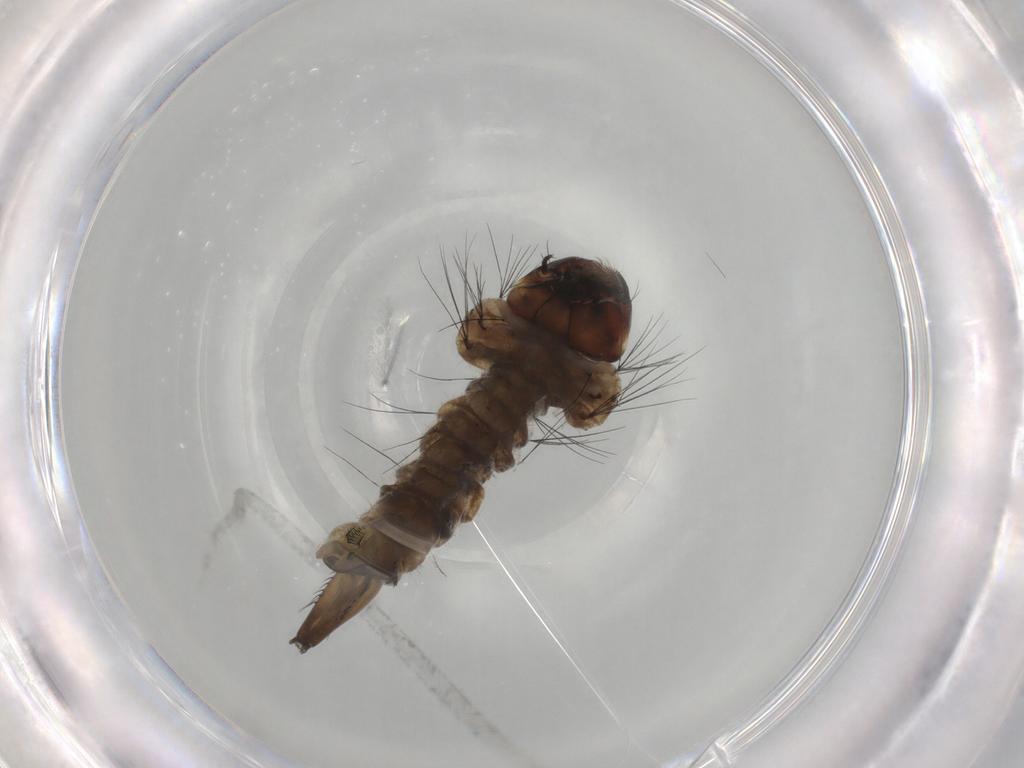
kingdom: Animalia
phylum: Arthropoda
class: Insecta
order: Diptera
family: Culicidae
